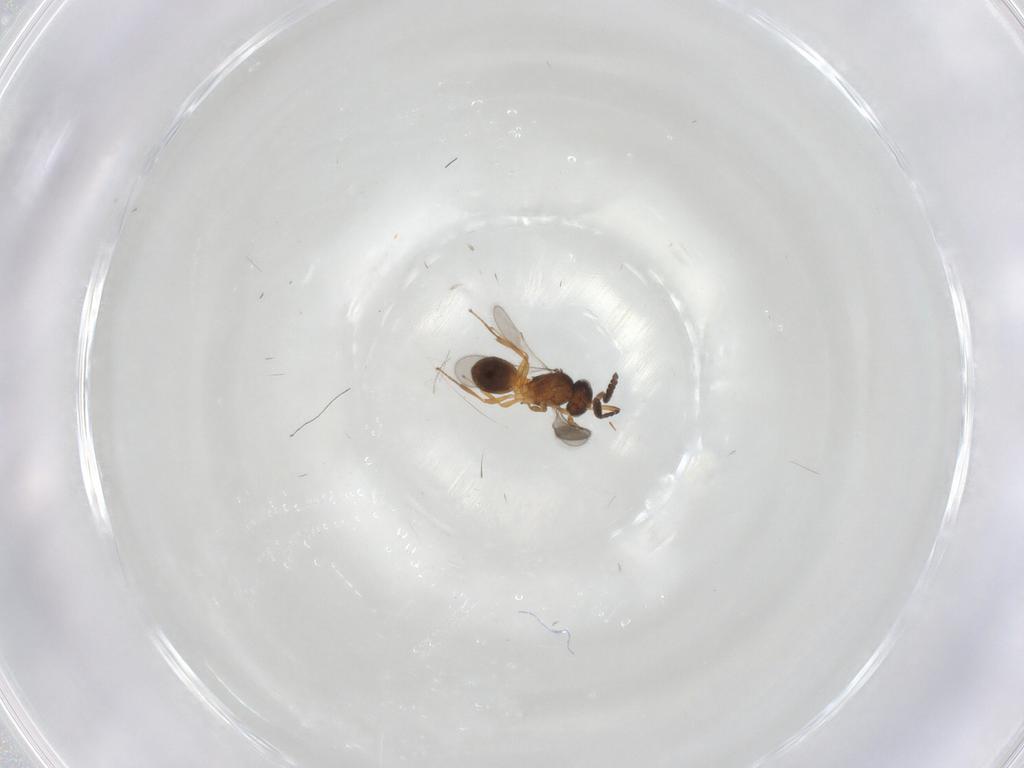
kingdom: Animalia
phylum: Arthropoda
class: Insecta
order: Hymenoptera
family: Scelionidae
